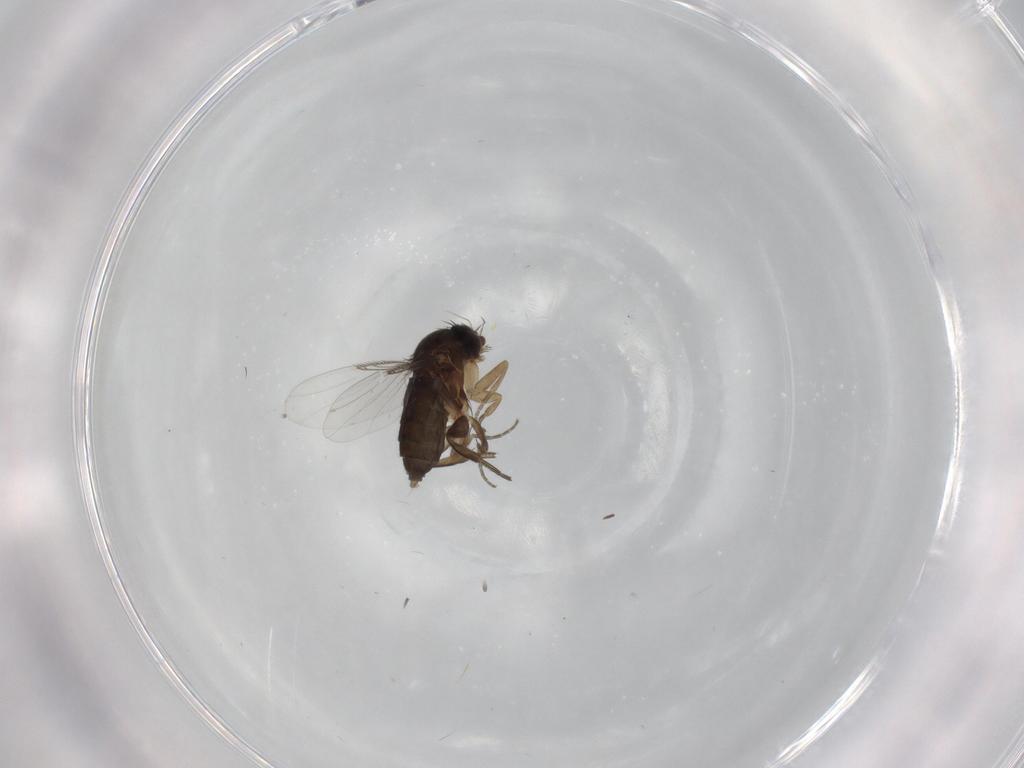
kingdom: Animalia
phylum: Arthropoda
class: Insecta
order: Diptera
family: Phoridae
